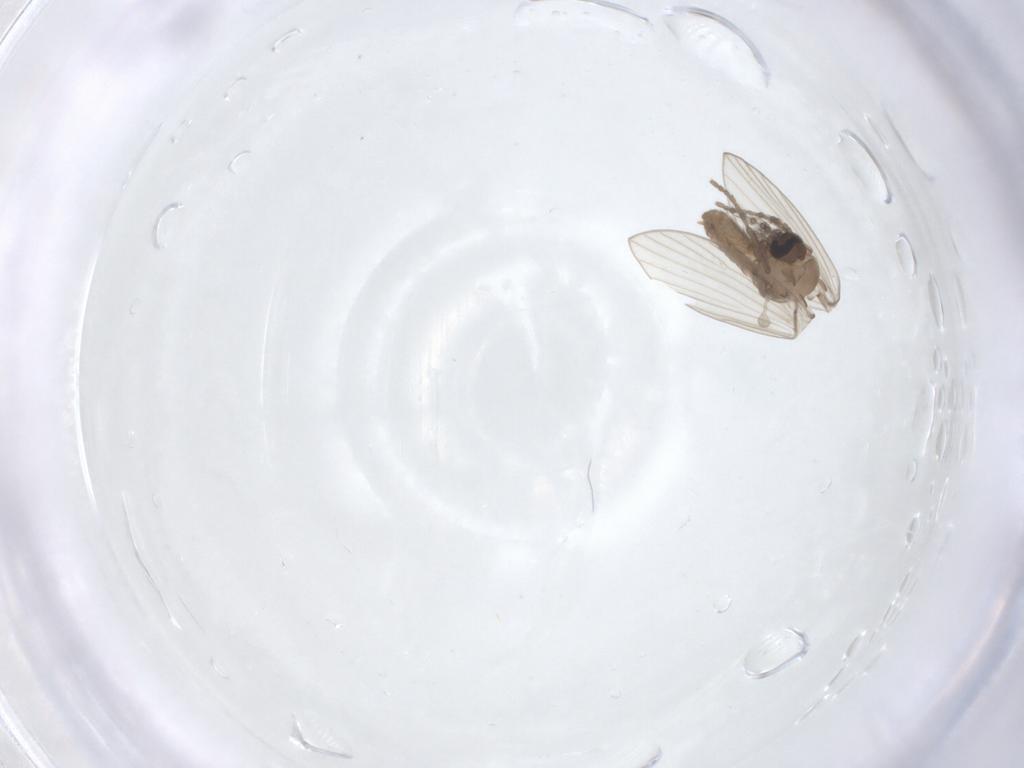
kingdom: Animalia
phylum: Arthropoda
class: Insecta
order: Diptera
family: Psychodidae
